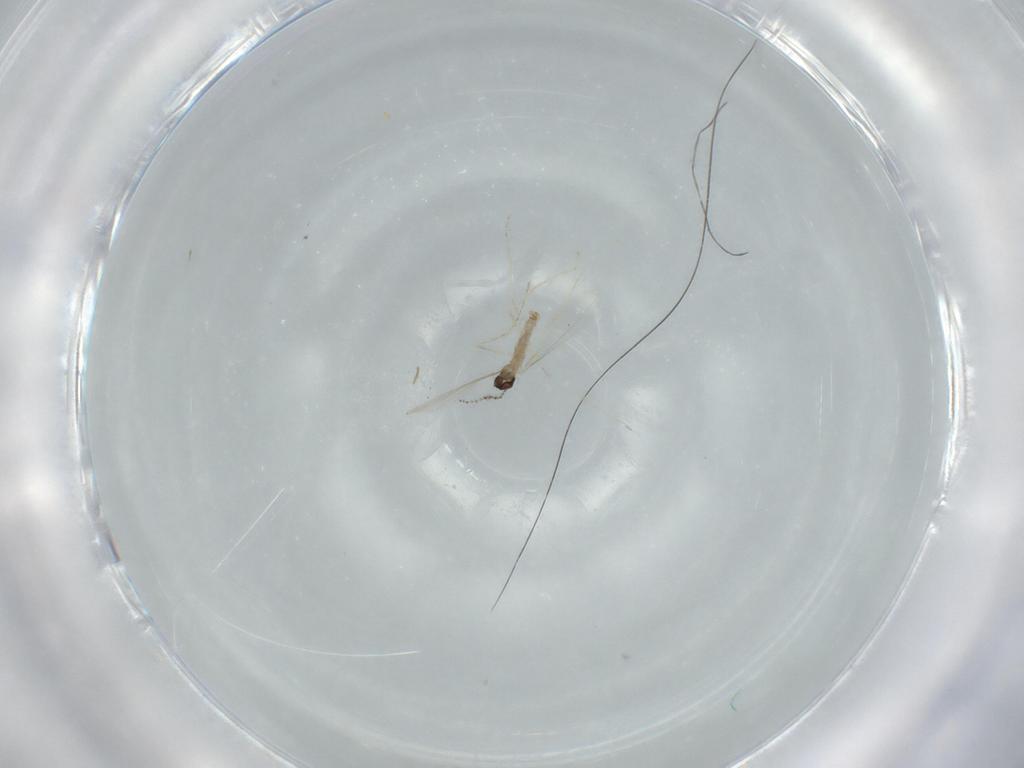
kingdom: Animalia
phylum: Arthropoda
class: Insecta
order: Diptera
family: Cecidomyiidae
